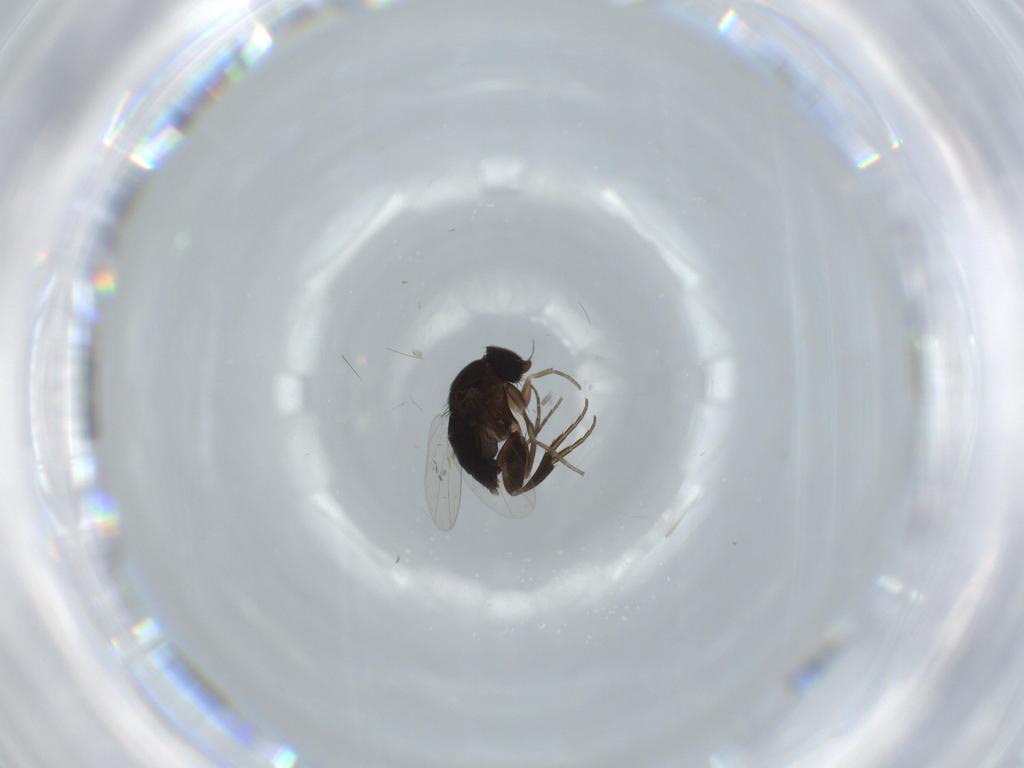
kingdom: Animalia
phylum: Arthropoda
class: Insecta
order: Diptera
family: Phoridae
